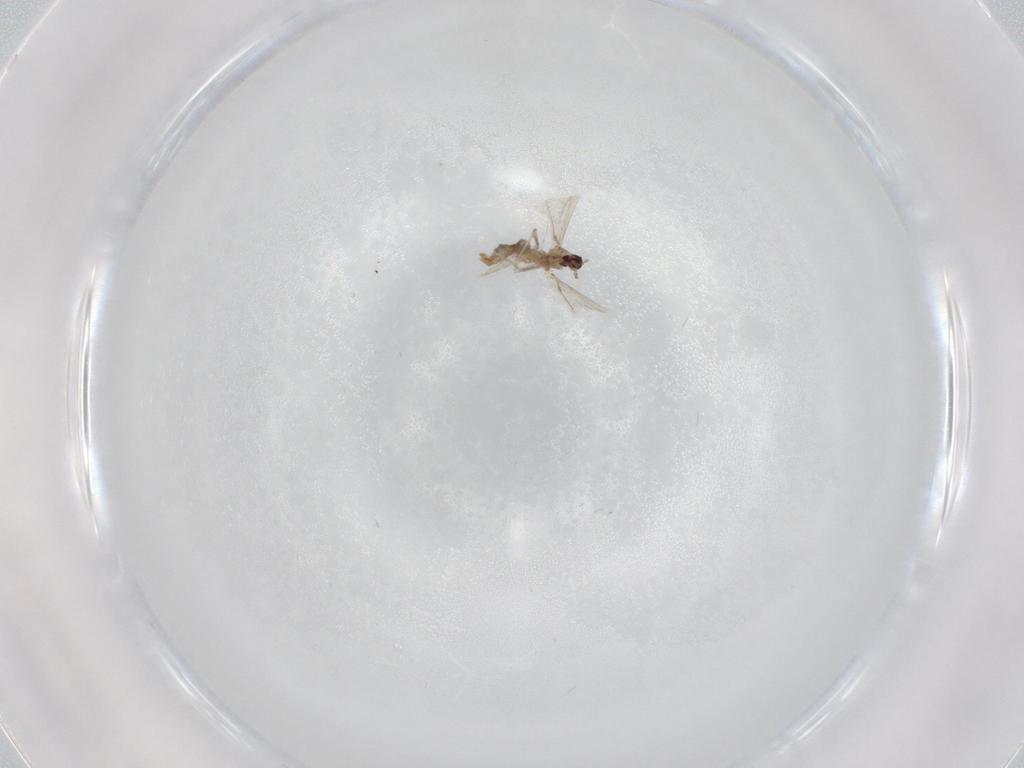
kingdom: Animalia
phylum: Arthropoda
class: Insecta
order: Diptera
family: Cecidomyiidae
